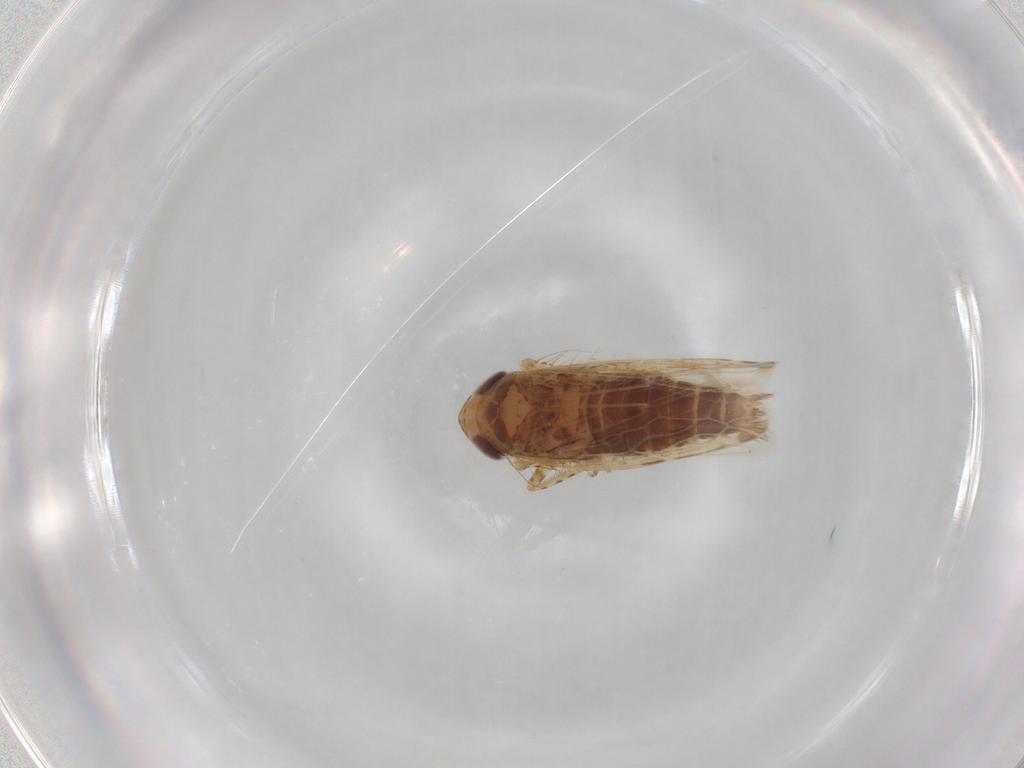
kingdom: Animalia
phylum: Arthropoda
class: Insecta
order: Hemiptera
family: Cicadellidae
